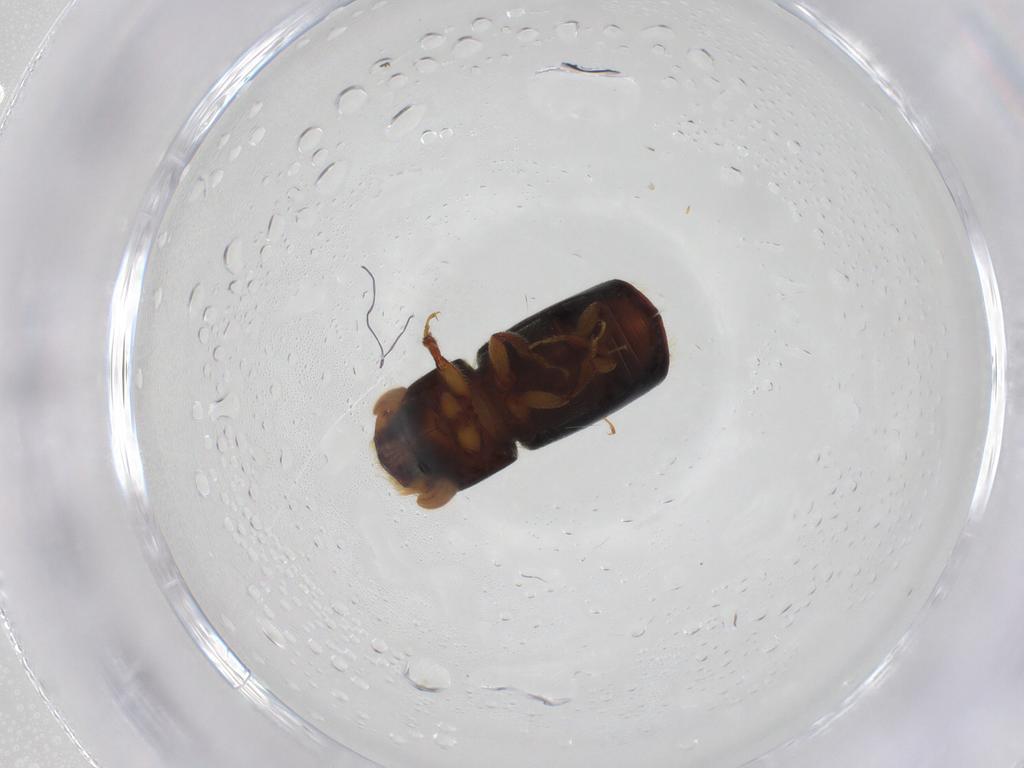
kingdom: Animalia
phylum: Arthropoda
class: Insecta
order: Coleoptera
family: Curculionidae
